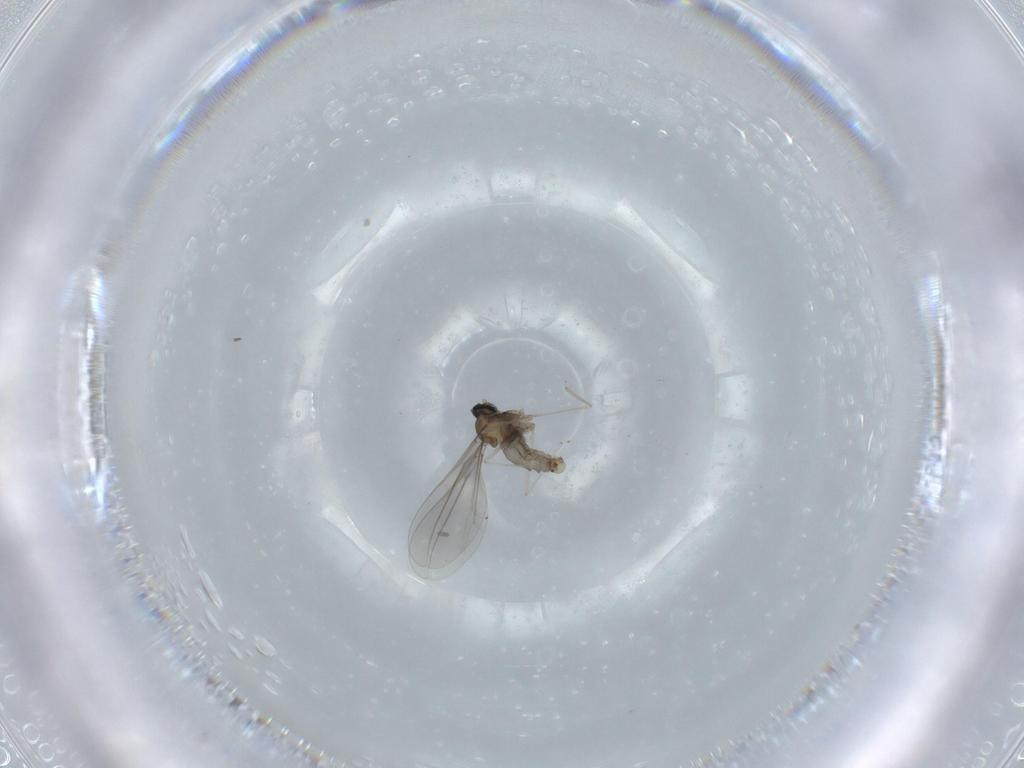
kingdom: Animalia
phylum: Arthropoda
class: Insecta
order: Diptera
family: Cecidomyiidae
